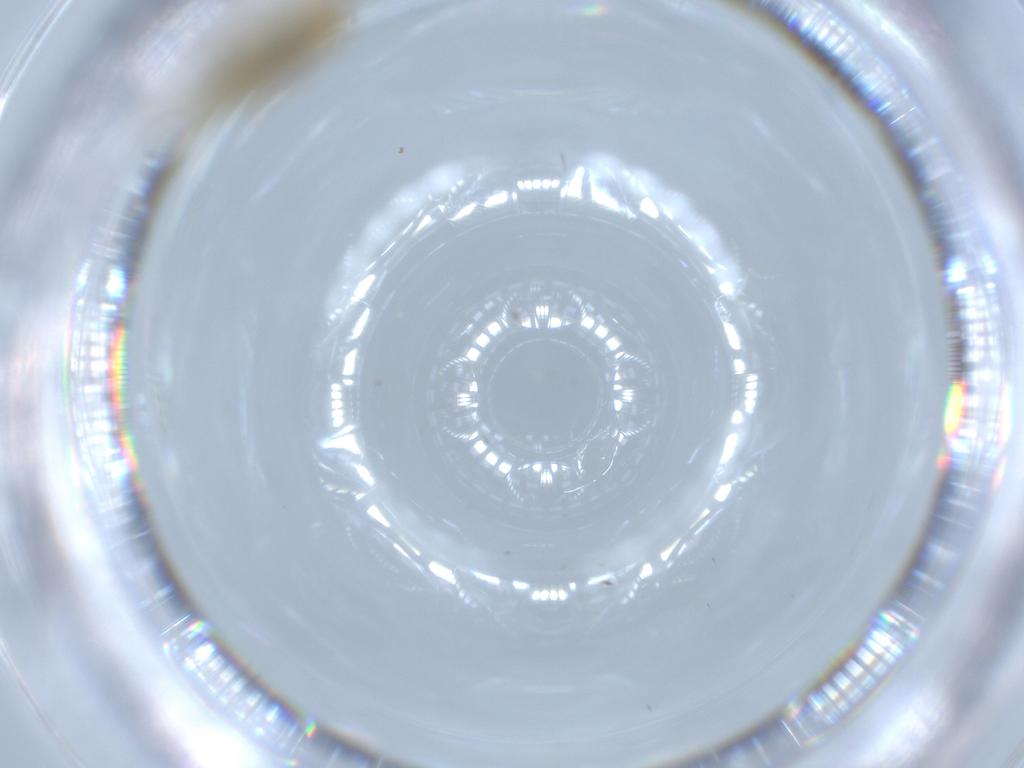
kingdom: Animalia
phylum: Arthropoda
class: Insecta
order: Psocodea
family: Caeciliusidae
